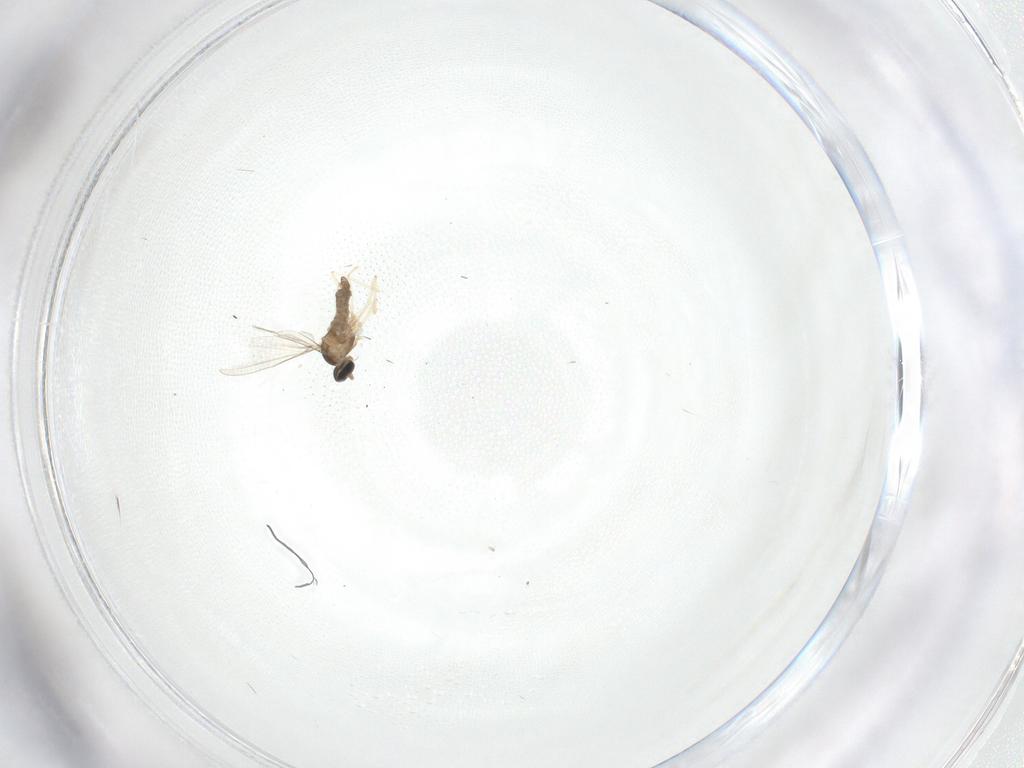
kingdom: Animalia
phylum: Arthropoda
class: Insecta
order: Diptera
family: Cecidomyiidae
